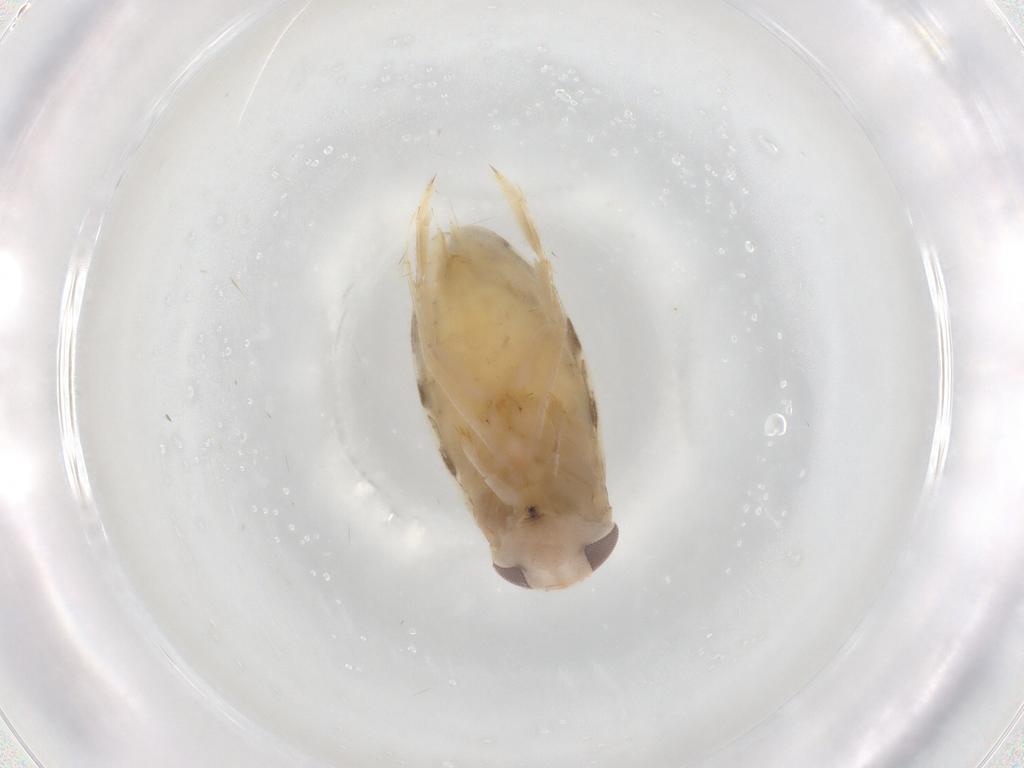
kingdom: Animalia
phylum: Arthropoda
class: Insecta
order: Hemiptera
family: Corixidae
